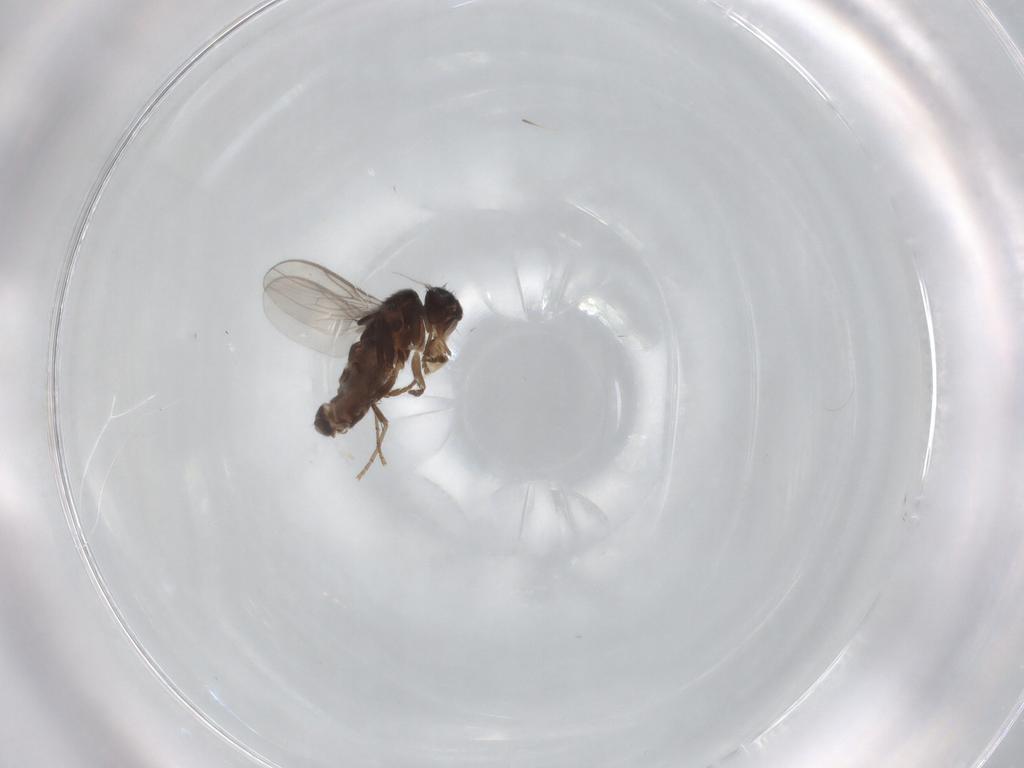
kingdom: Animalia
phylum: Arthropoda
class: Insecta
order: Diptera
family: Sphaeroceridae
